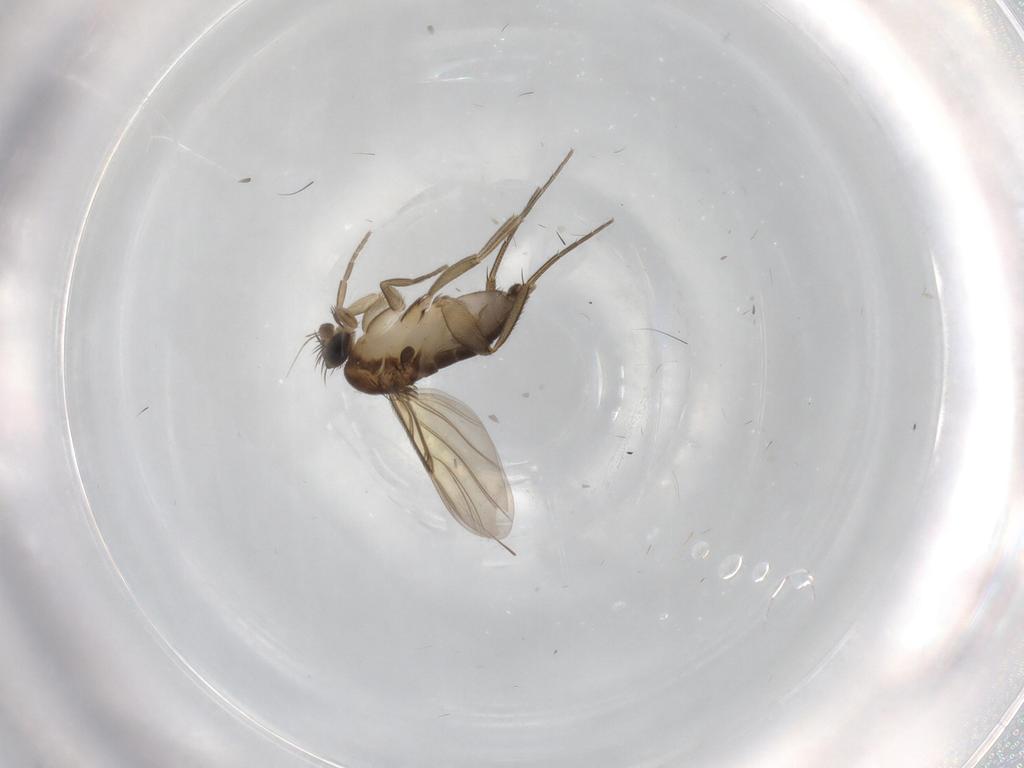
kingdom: Animalia
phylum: Arthropoda
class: Insecta
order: Diptera
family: Phoridae
